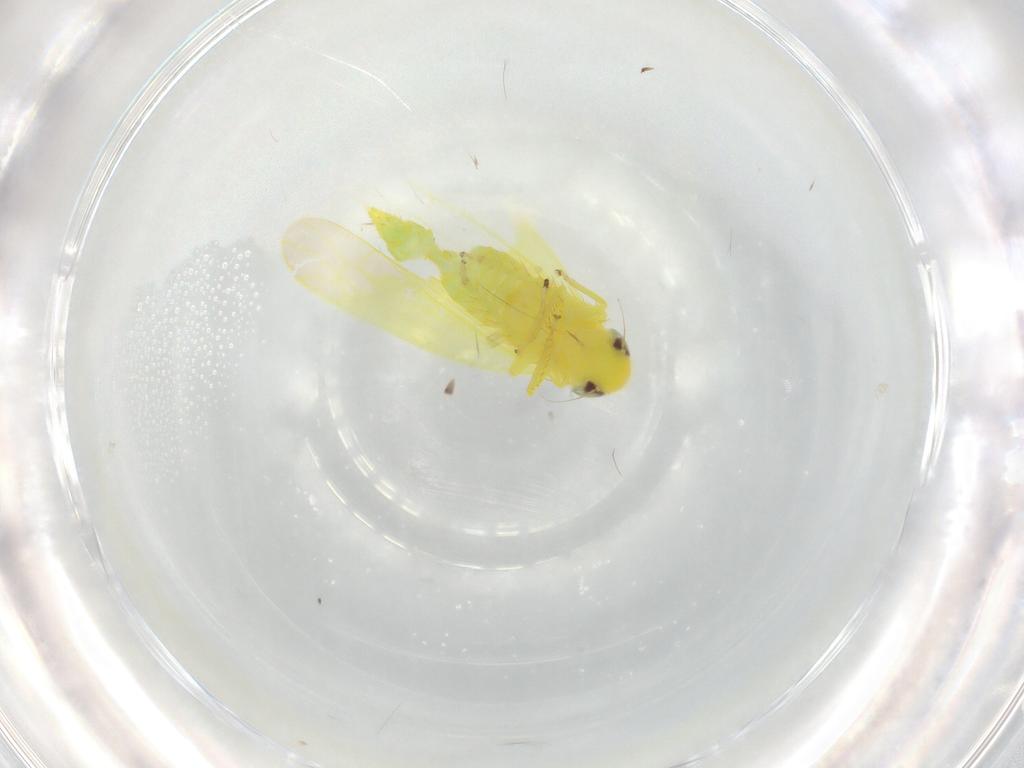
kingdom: Animalia
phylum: Arthropoda
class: Insecta
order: Hemiptera
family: Cicadellidae
